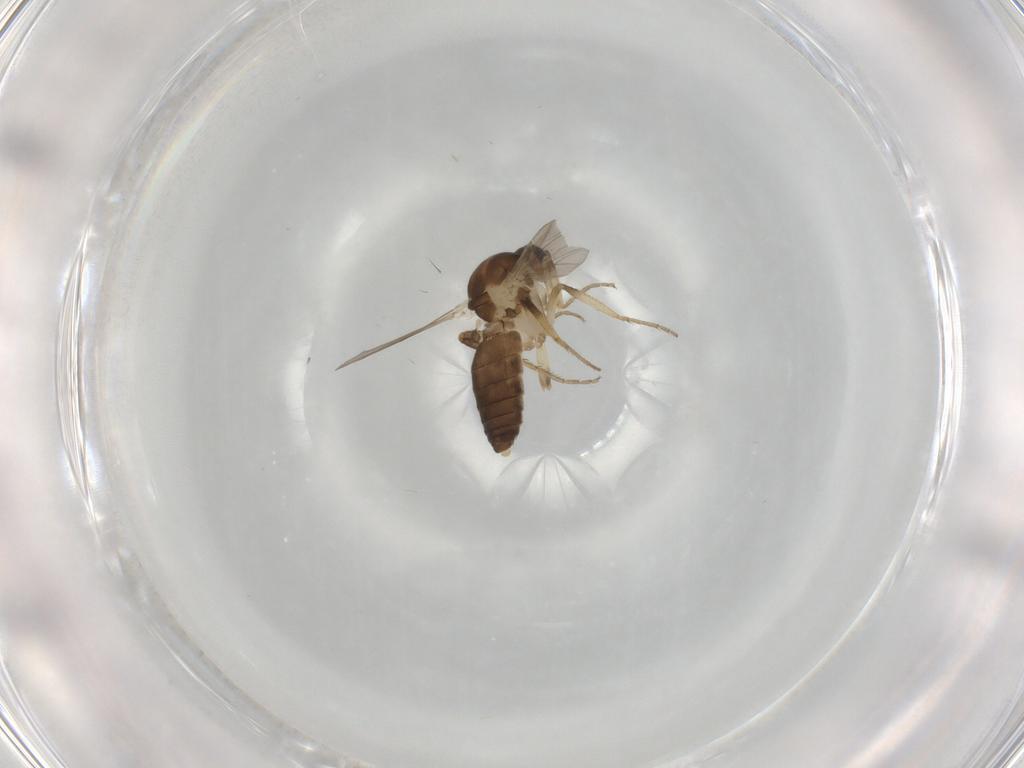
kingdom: Animalia
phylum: Arthropoda
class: Insecta
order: Diptera
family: Ceratopogonidae
